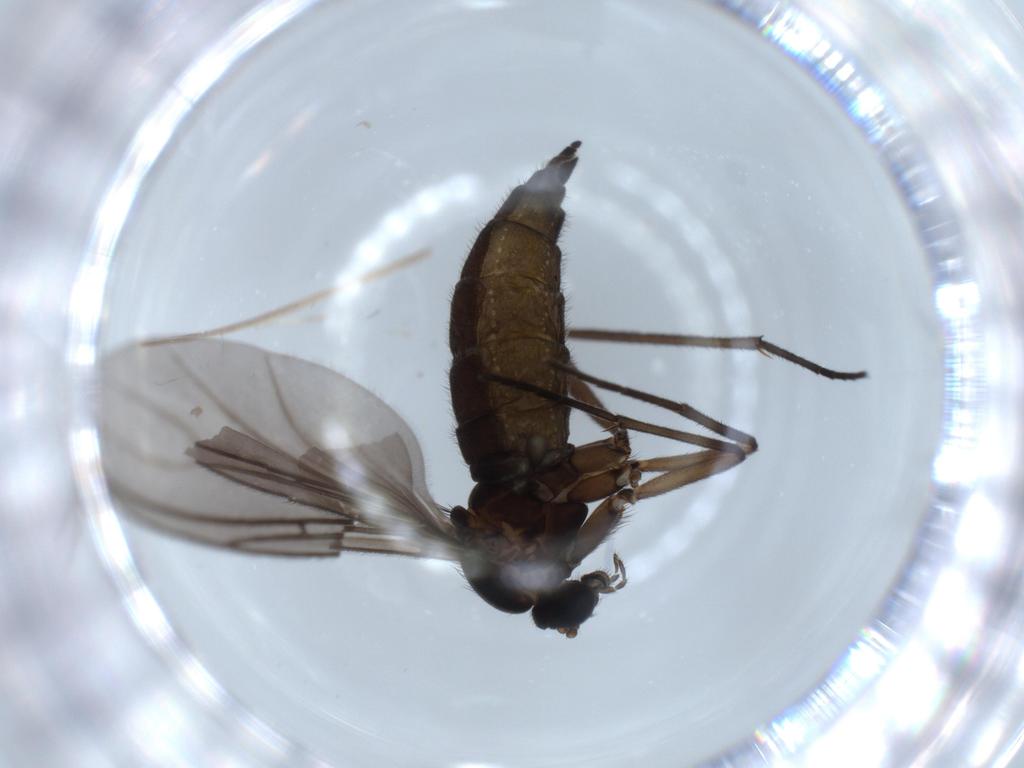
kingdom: Animalia
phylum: Arthropoda
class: Insecta
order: Diptera
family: Sciaridae
